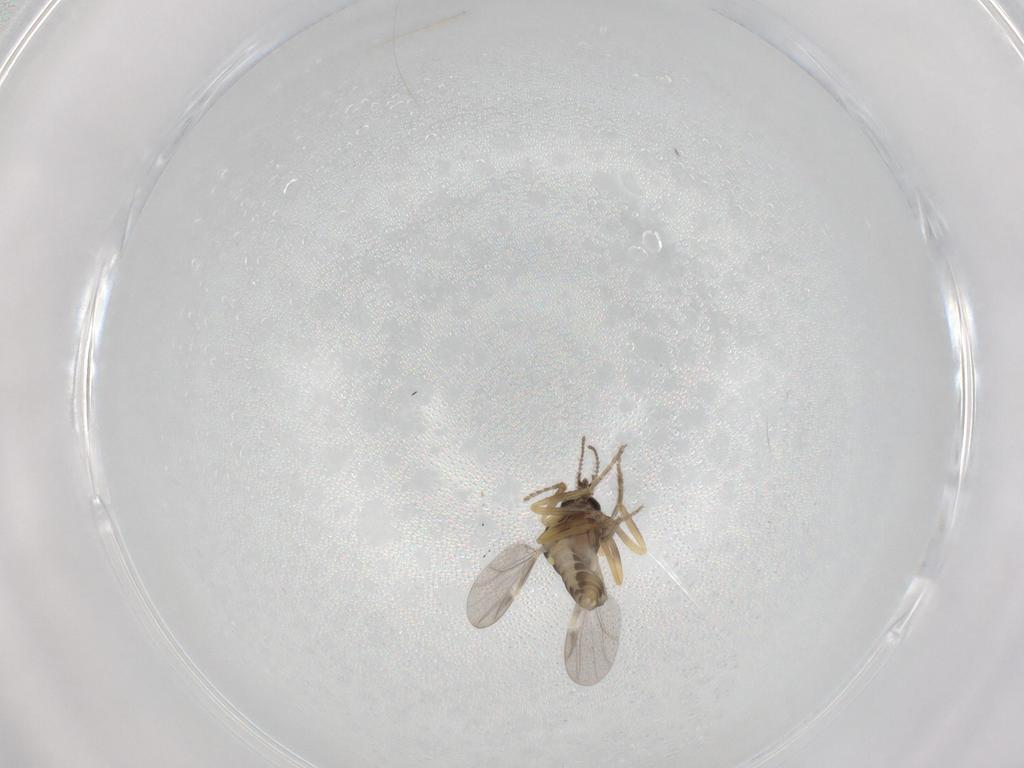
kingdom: Animalia
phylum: Arthropoda
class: Insecta
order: Diptera
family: Ceratopogonidae
